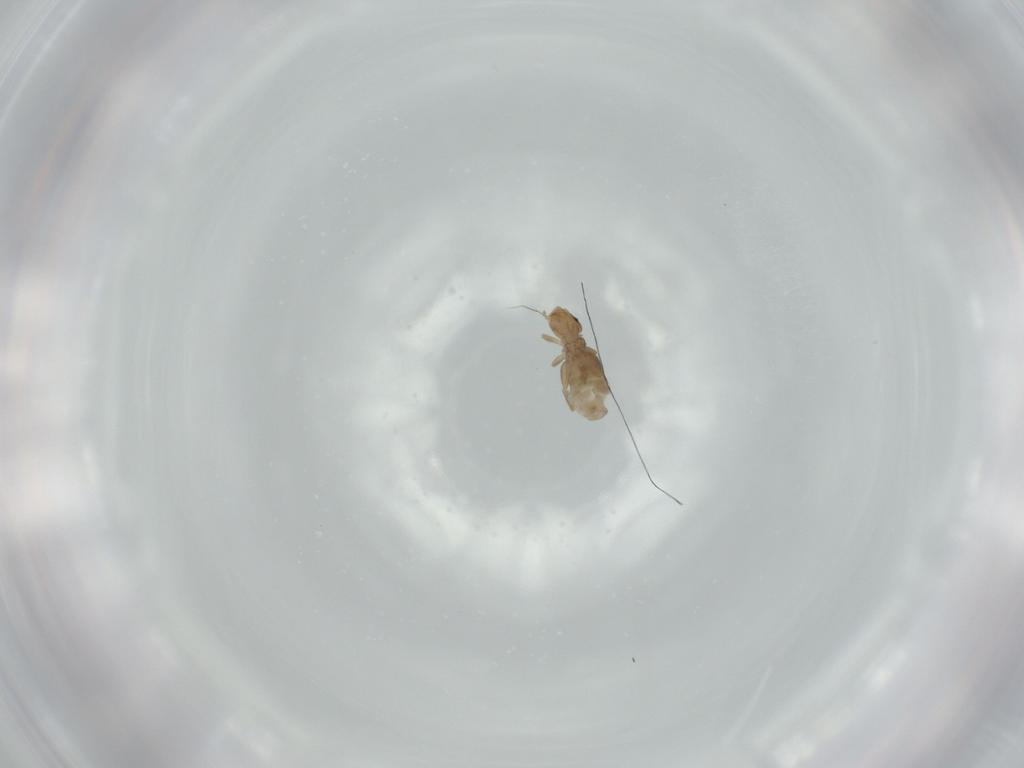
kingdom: Animalia
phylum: Arthropoda
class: Insecta
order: Psocodea
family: Liposcelididae
